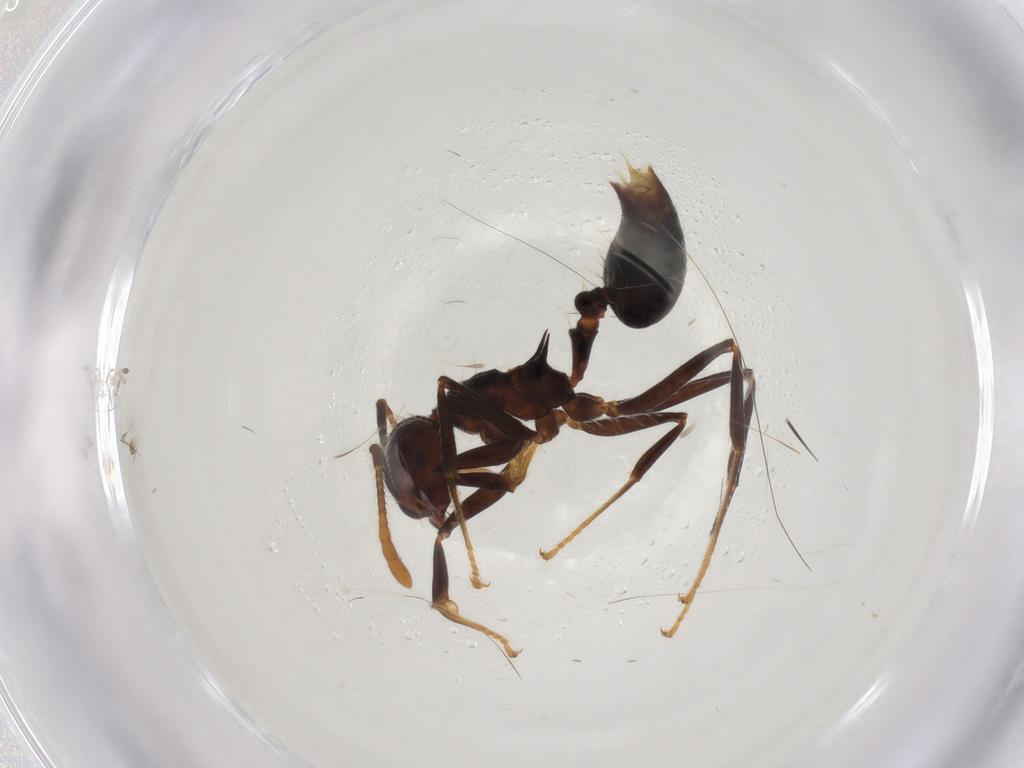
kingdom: Animalia
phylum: Arthropoda
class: Insecta
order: Hymenoptera
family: Formicidae
